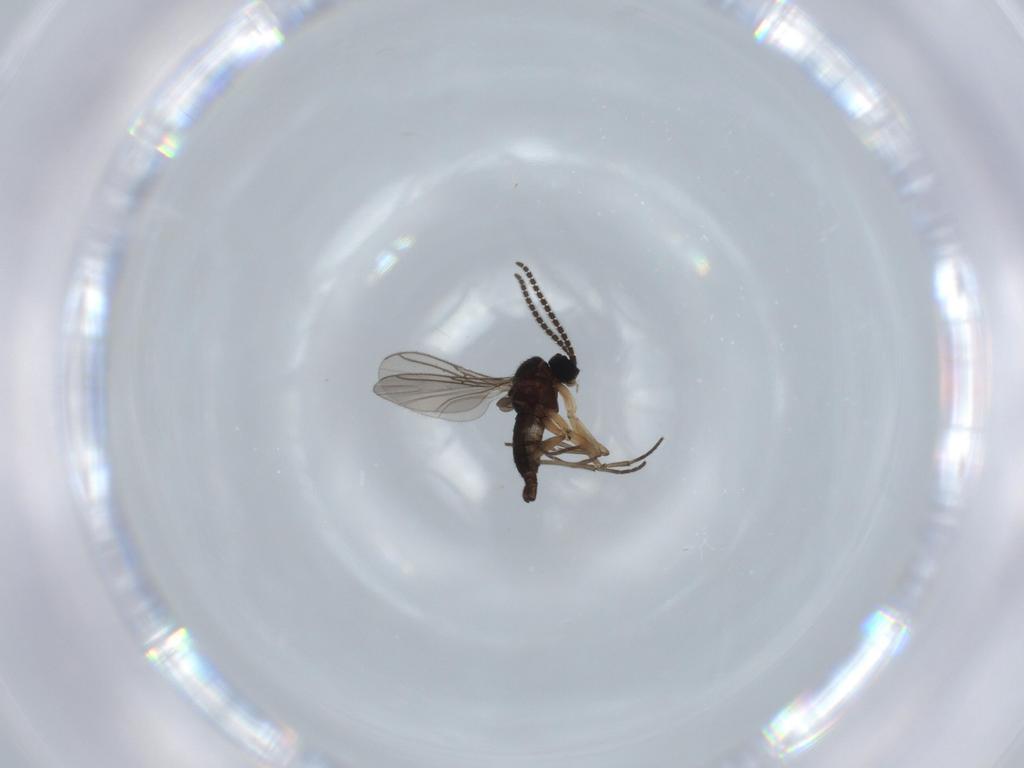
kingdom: Animalia
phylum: Arthropoda
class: Insecta
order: Diptera
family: Sciaridae
